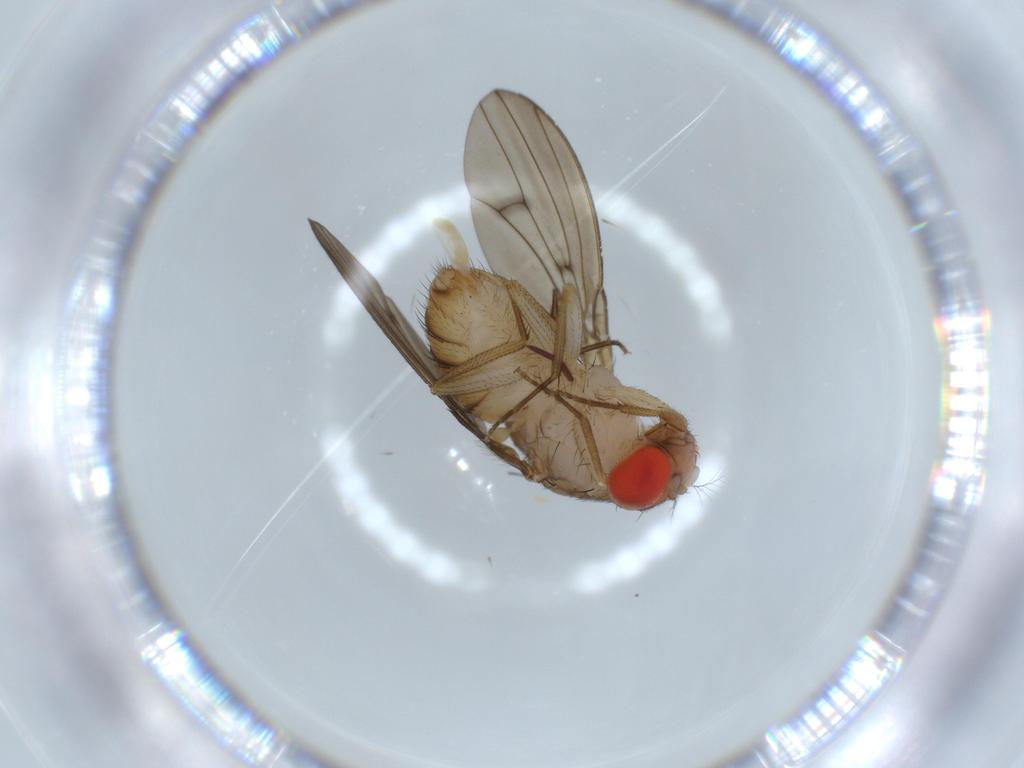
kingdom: Animalia
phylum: Arthropoda
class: Insecta
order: Diptera
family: Drosophilidae
